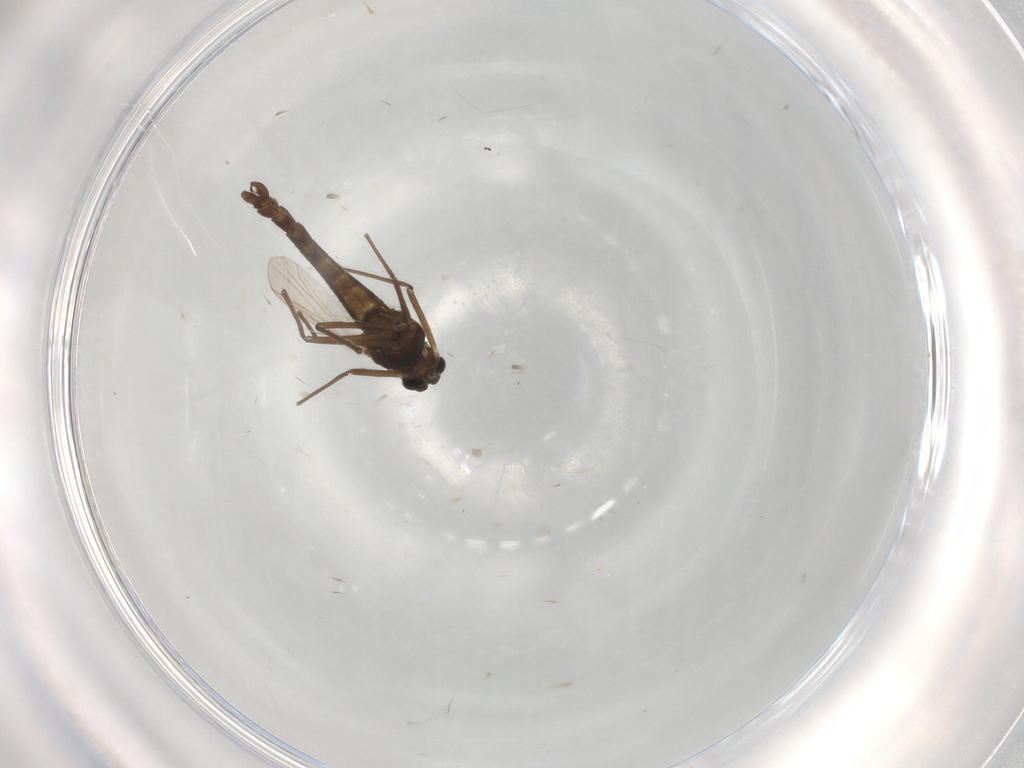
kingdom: Animalia
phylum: Arthropoda
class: Insecta
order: Diptera
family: Chironomidae
